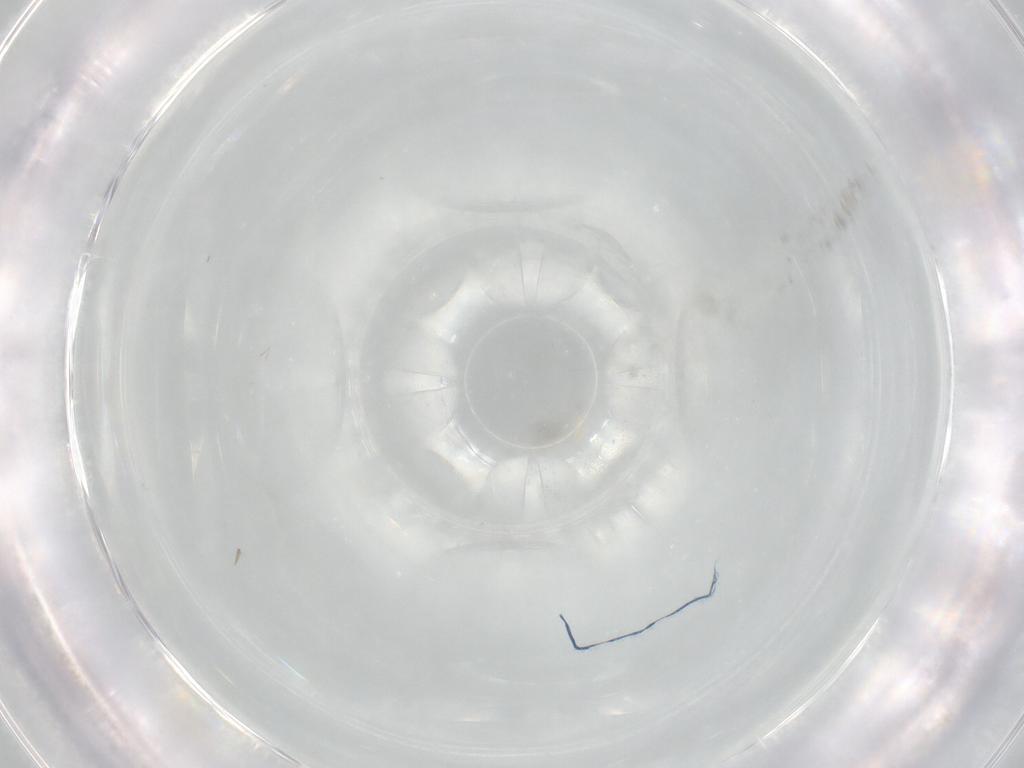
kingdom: Animalia
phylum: Arthropoda
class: Insecta
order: Diptera
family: Muscidae
